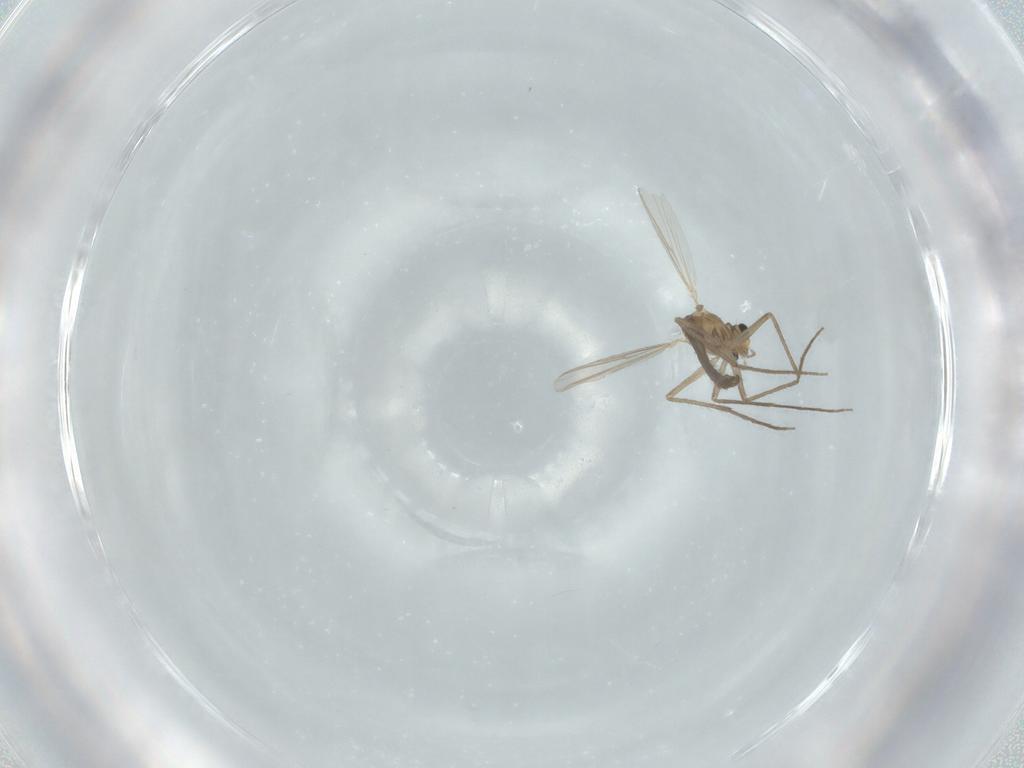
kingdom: Animalia
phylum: Arthropoda
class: Insecta
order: Diptera
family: Chironomidae
